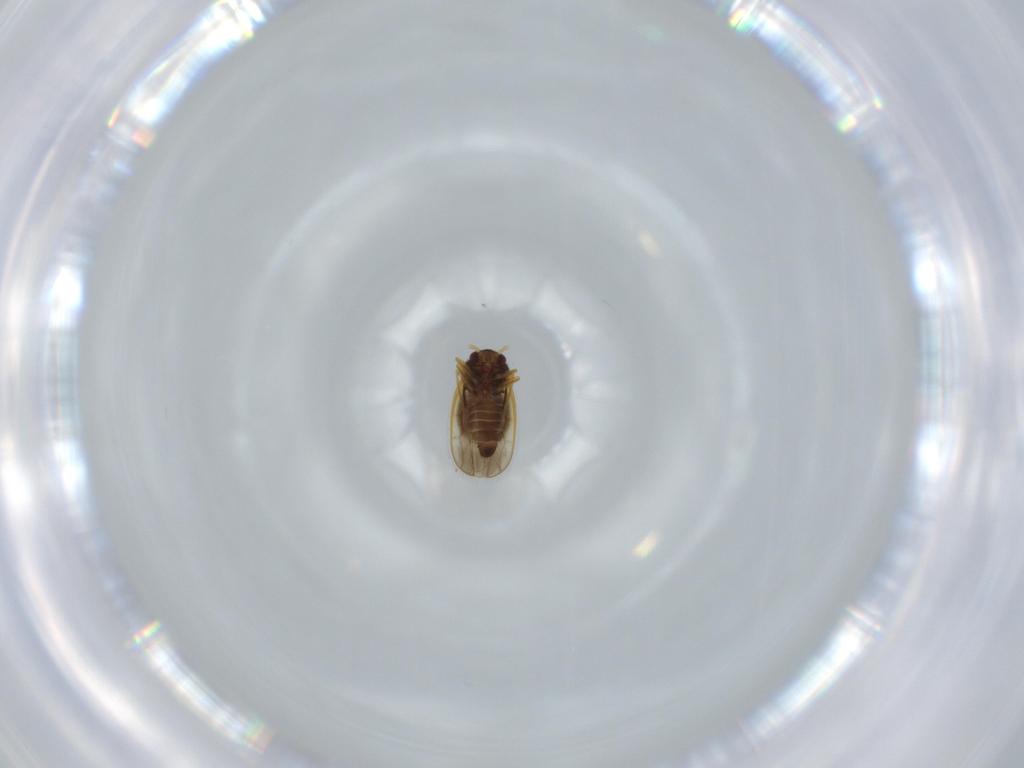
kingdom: Animalia
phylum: Arthropoda
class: Insecta
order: Hemiptera
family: Schizopteridae
